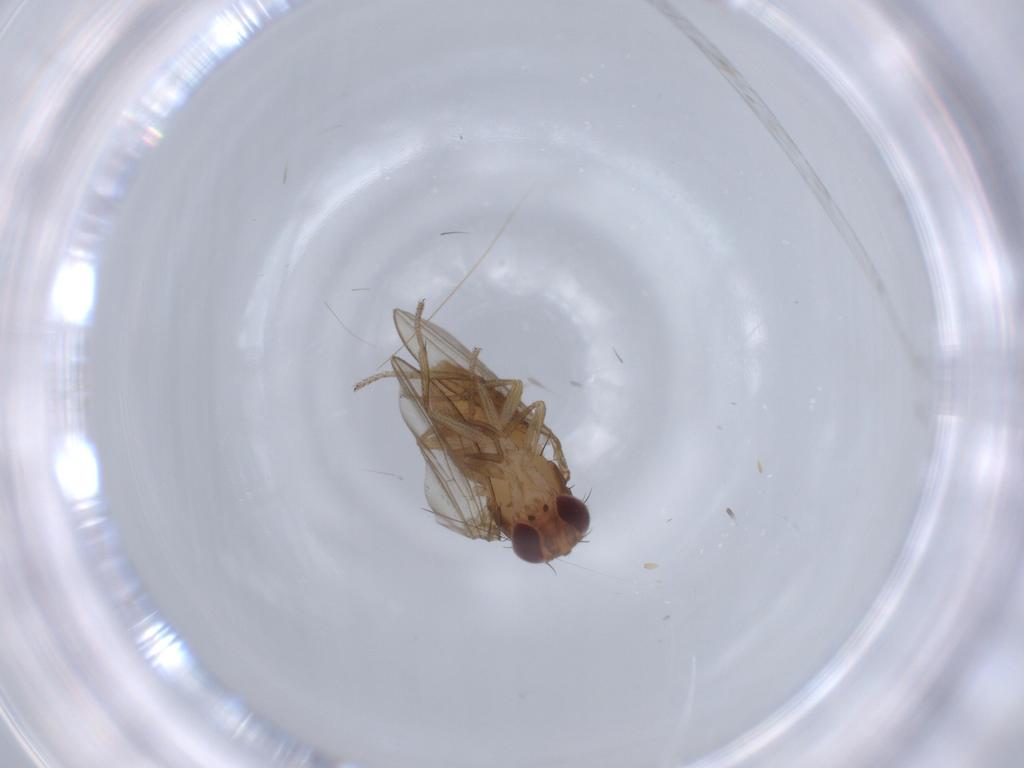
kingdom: Animalia
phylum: Arthropoda
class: Insecta
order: Diptera
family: Drosophilidae
